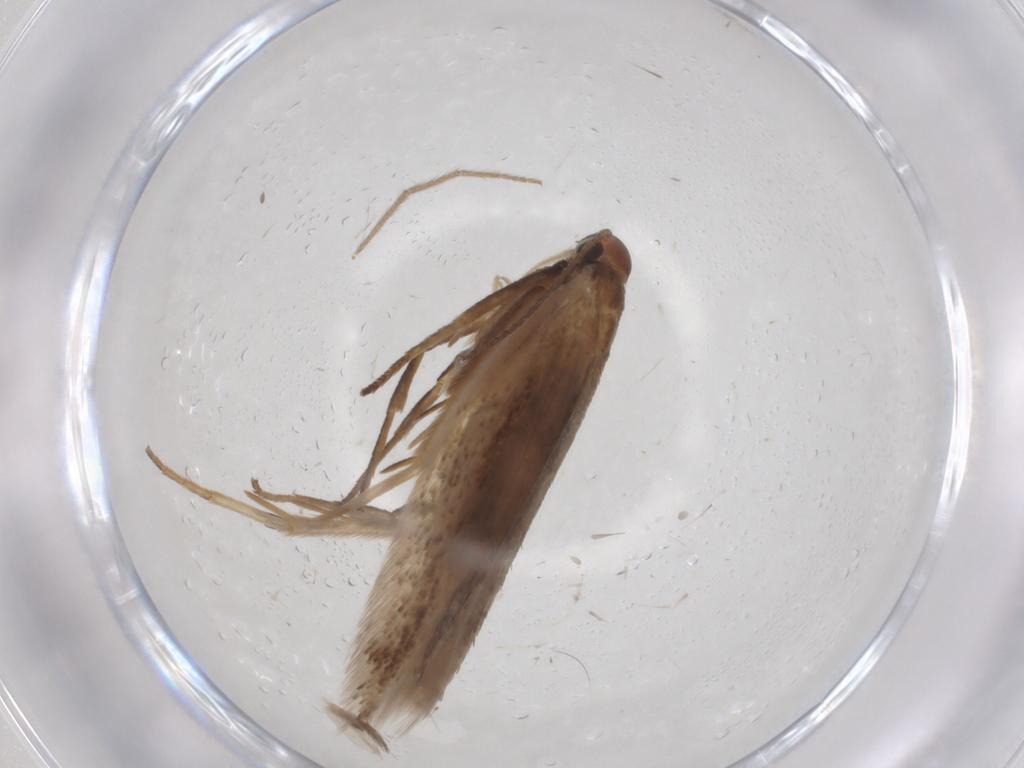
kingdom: Animalia
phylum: Arthropoda
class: Insecta
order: Lepidoptera
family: Gelechiidae
